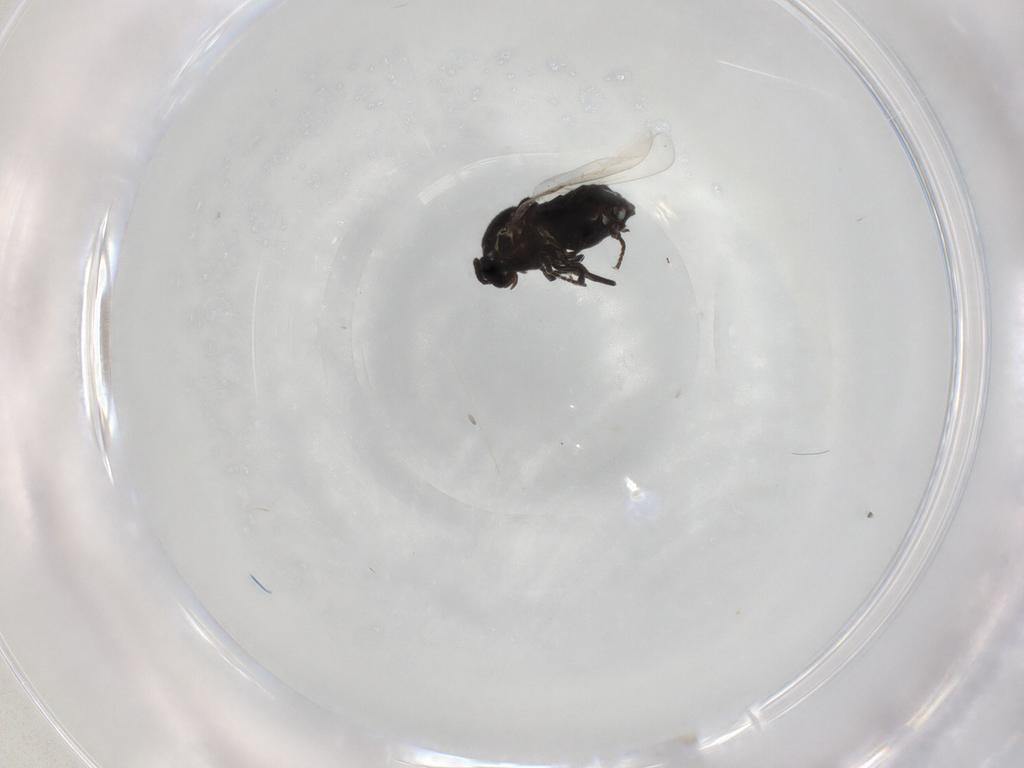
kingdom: Animalia
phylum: Arthropoda
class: Insecta
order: Diptera
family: Scatopsidae
